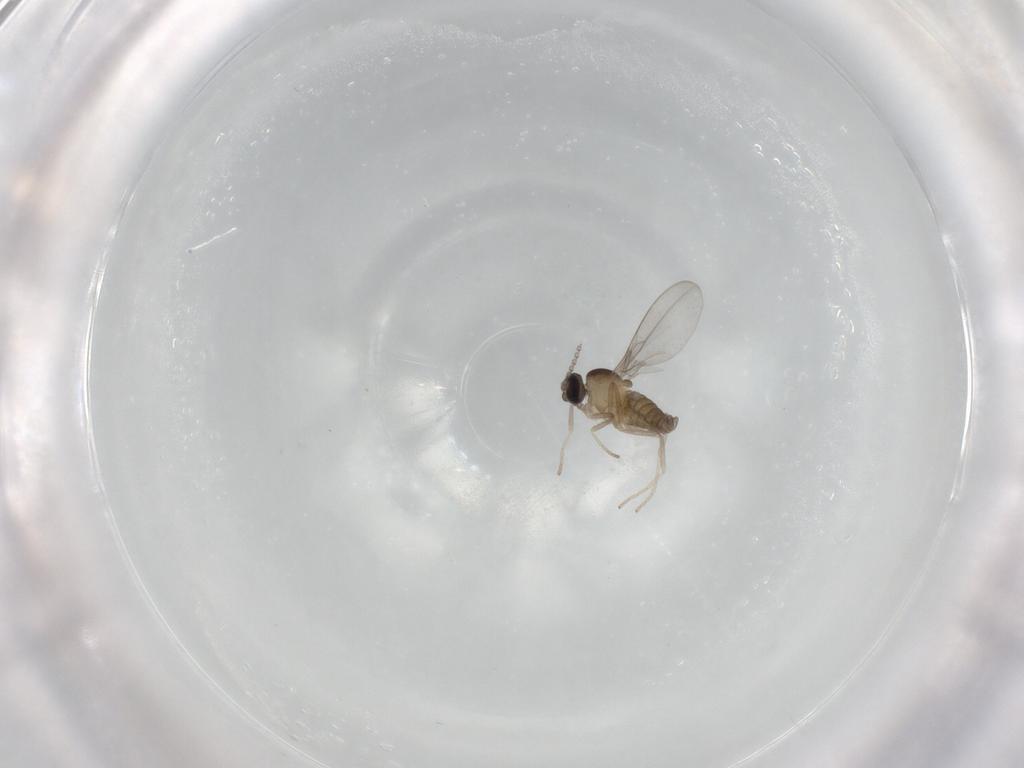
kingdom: Animalia
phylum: Arthropoda
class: Insecta
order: Diptera
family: Cecidomyiidae
